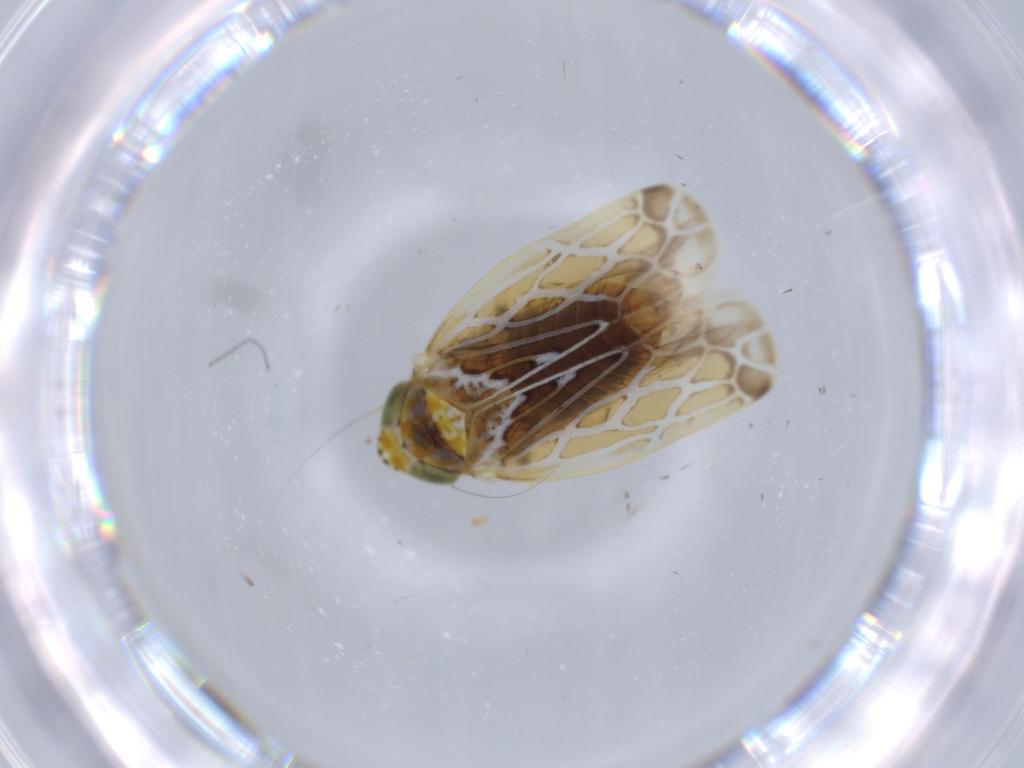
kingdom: Animalia
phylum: Arthropoda
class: Insecta
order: Hemiptera
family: Cicadellidae
